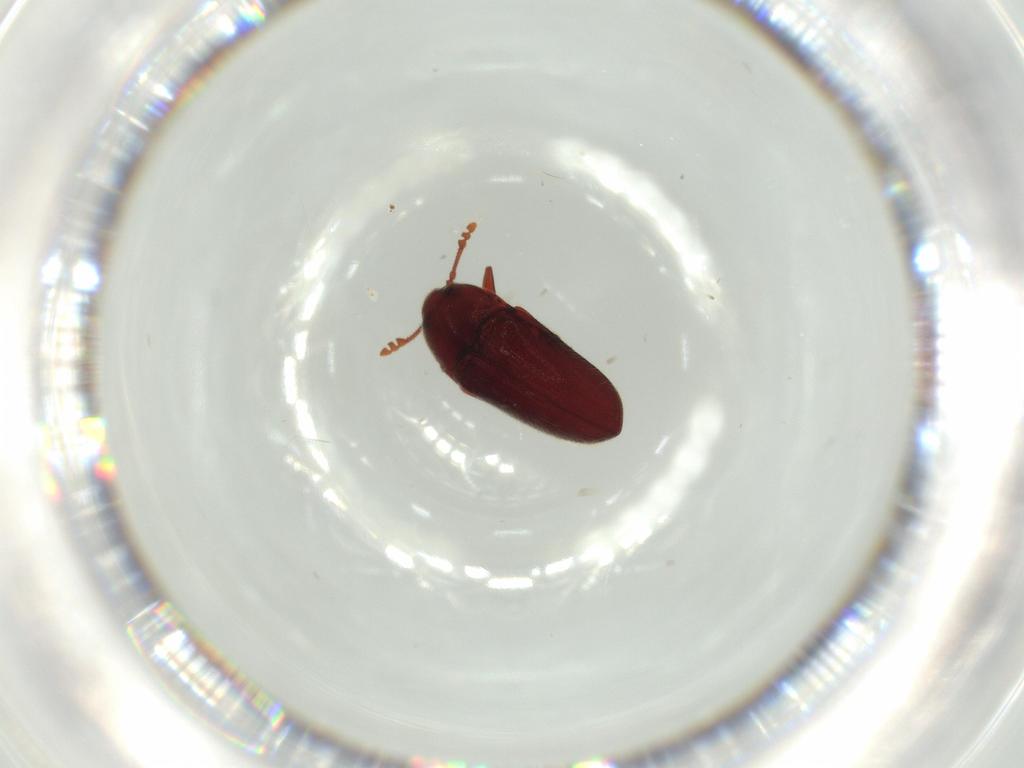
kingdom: Animalia
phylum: Arthropoda
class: Insecta
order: Coleoptera
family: Throscidae
